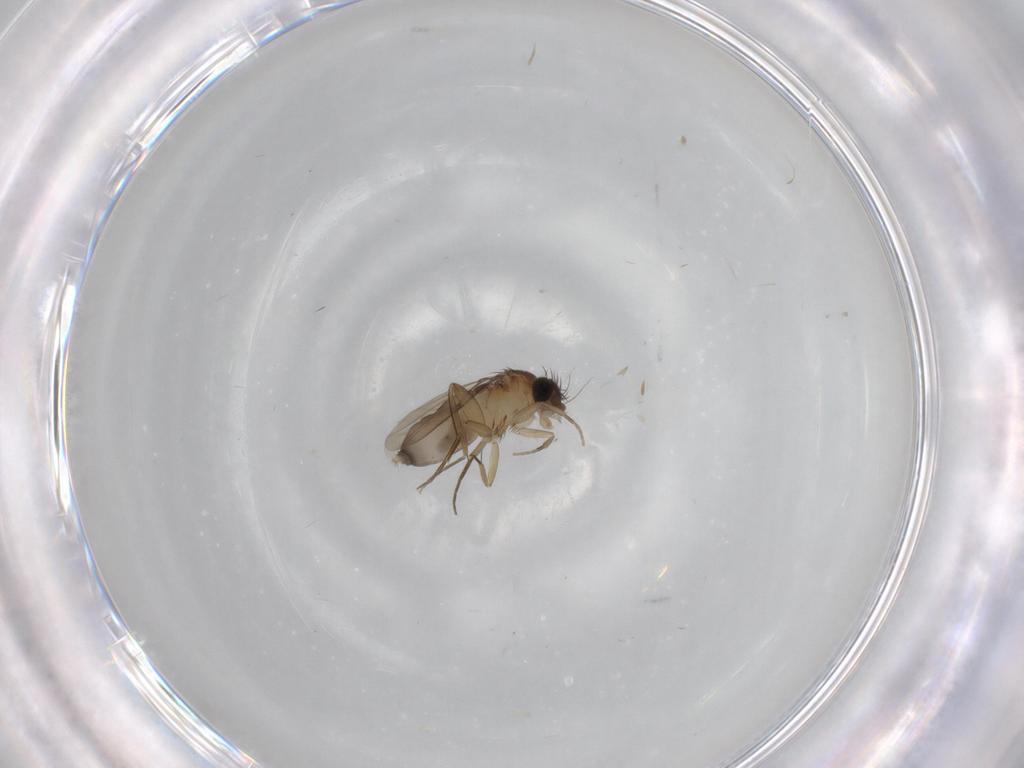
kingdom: Animalia
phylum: Arthropoda
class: Insecta
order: Diptera
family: Phoridae
